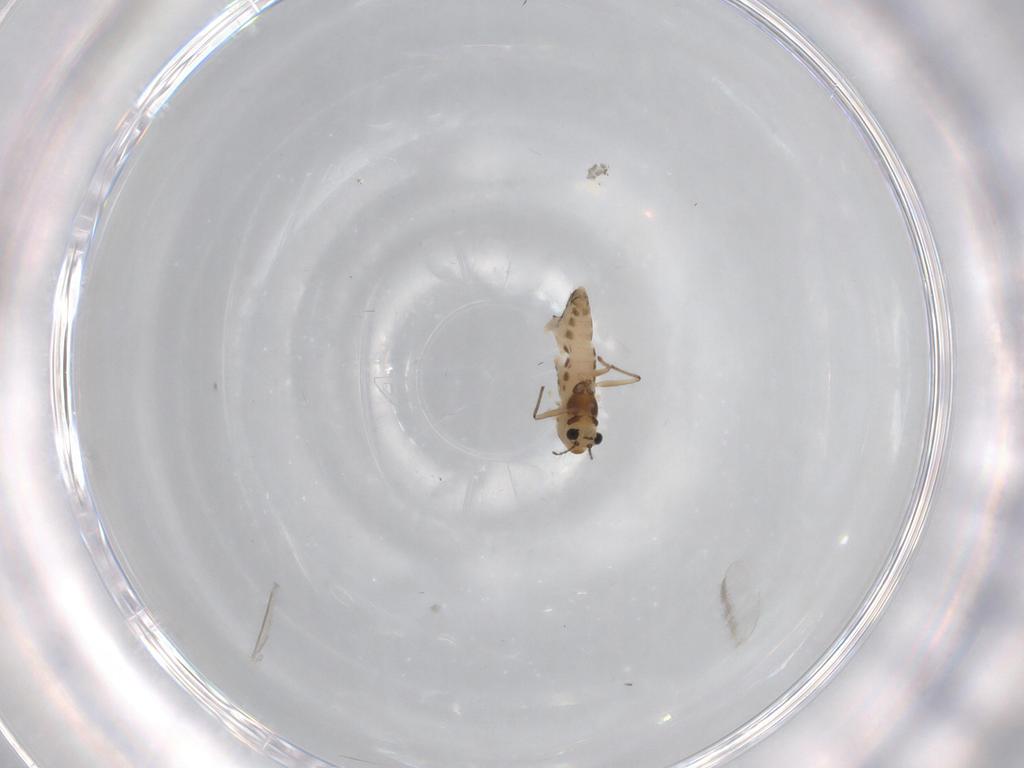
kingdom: Animalia
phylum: Arthropoda
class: Insecta
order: Diptera
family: Chironomidae
